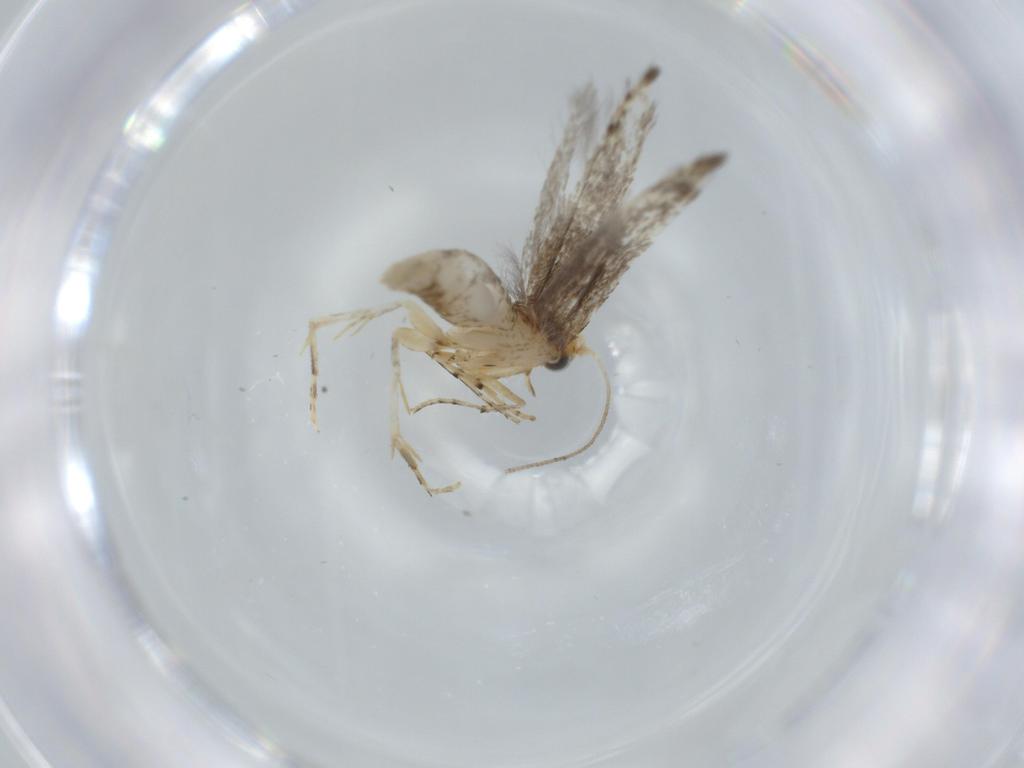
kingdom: Animalia
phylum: Arthropoda
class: Insecta
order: Lepidoptera
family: Argyresthiidae
